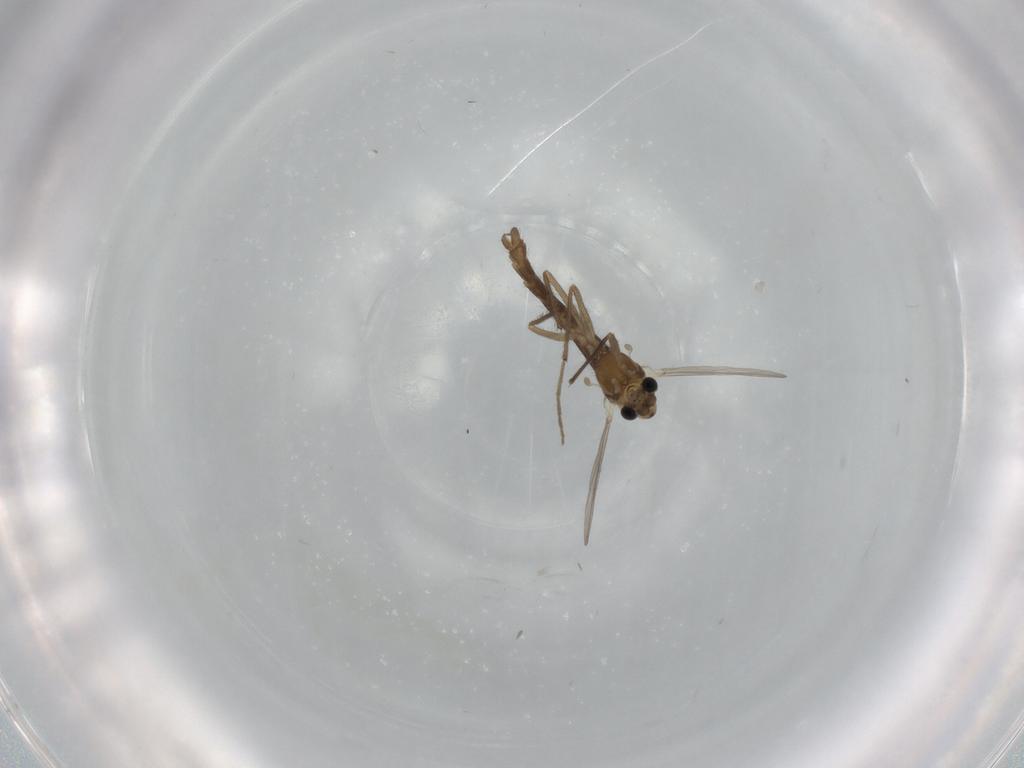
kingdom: Animalia
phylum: Arthropoda
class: Insecta
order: Diptera
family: Chironomidae
